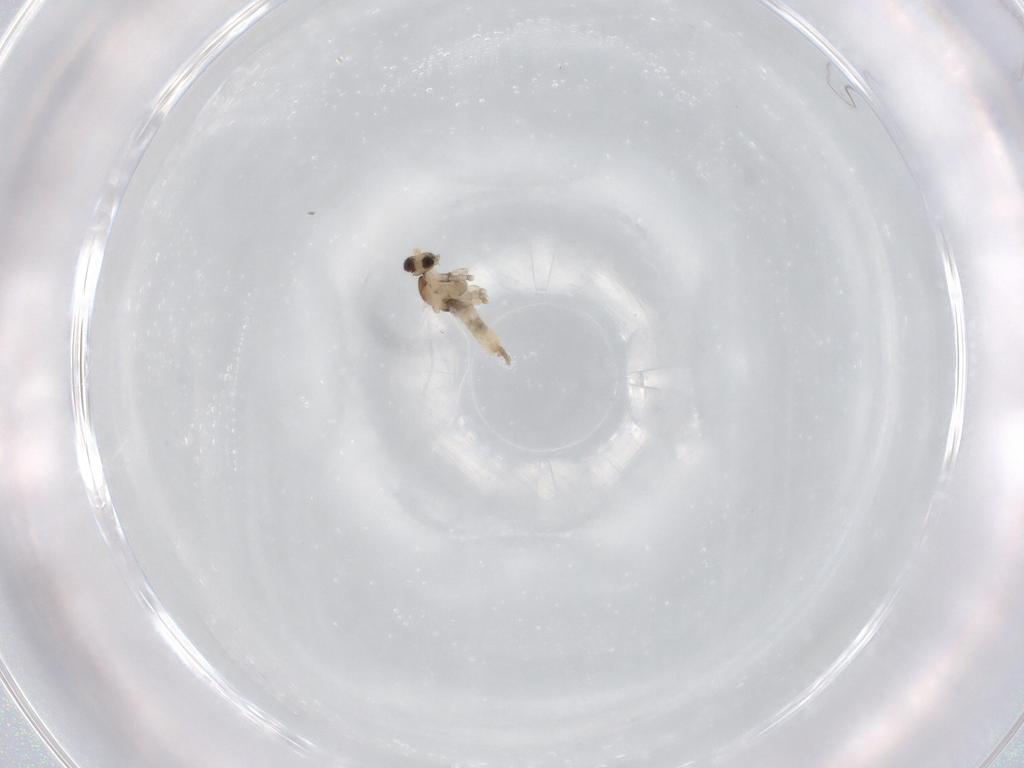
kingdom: Animalia
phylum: Arthropoda
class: Insecta
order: Diptera
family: Cecidomyiidae
